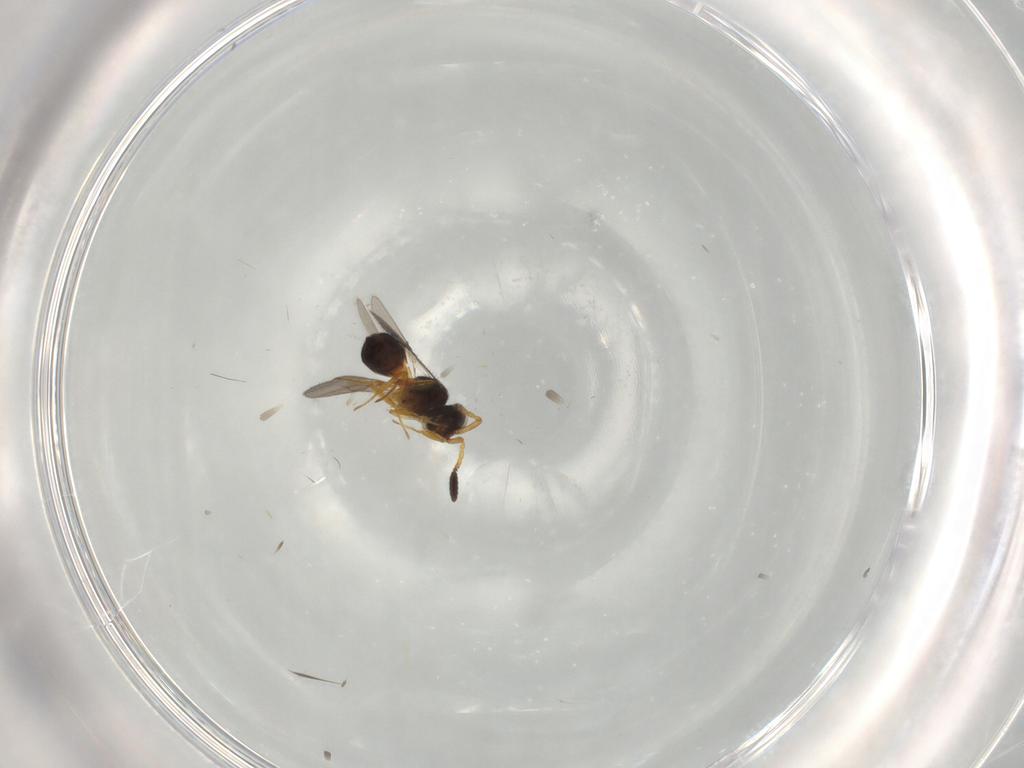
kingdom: Animalia
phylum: Arthropoda
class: Insecta
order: Hymenoptera
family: Scelionidae
